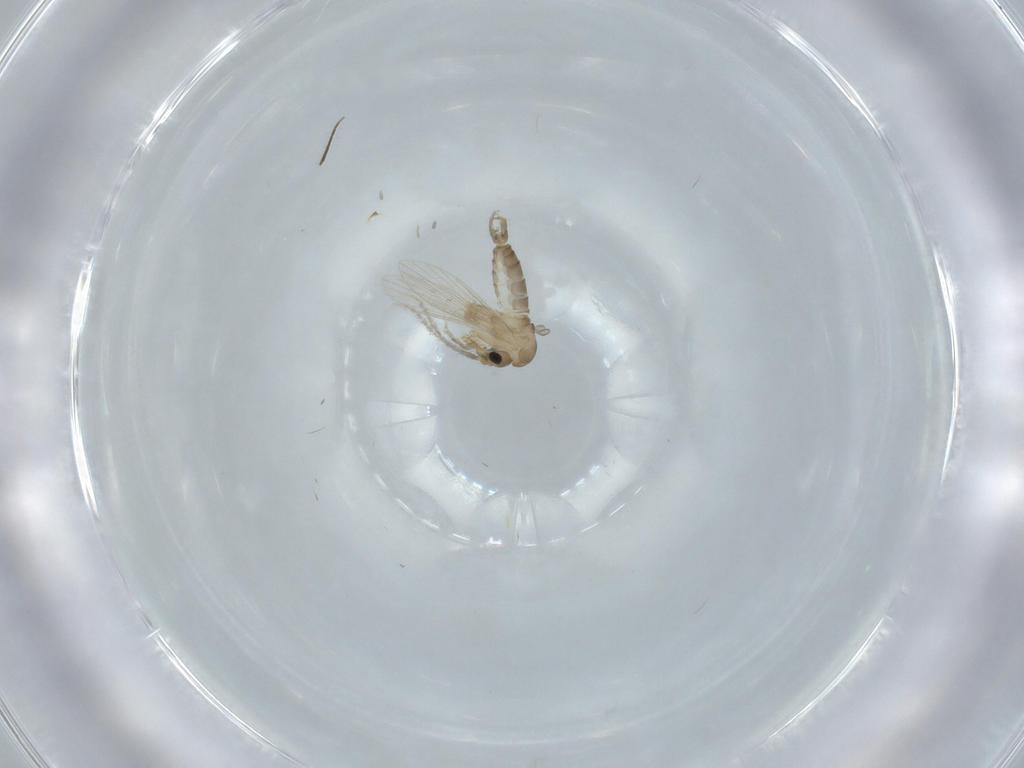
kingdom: Animalia
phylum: Arthropoda
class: Insecta
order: Diptera
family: Psychodidae
